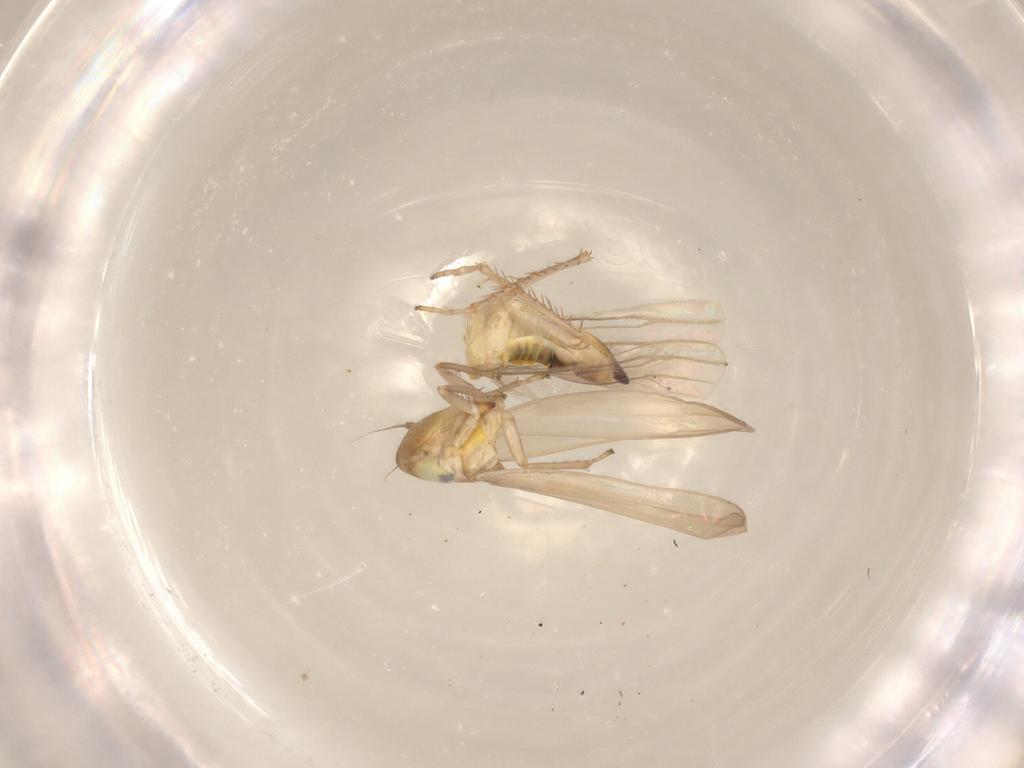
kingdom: Animalia
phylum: Arthropoda
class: Insecta
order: Hemiptera
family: Cicadellidae
